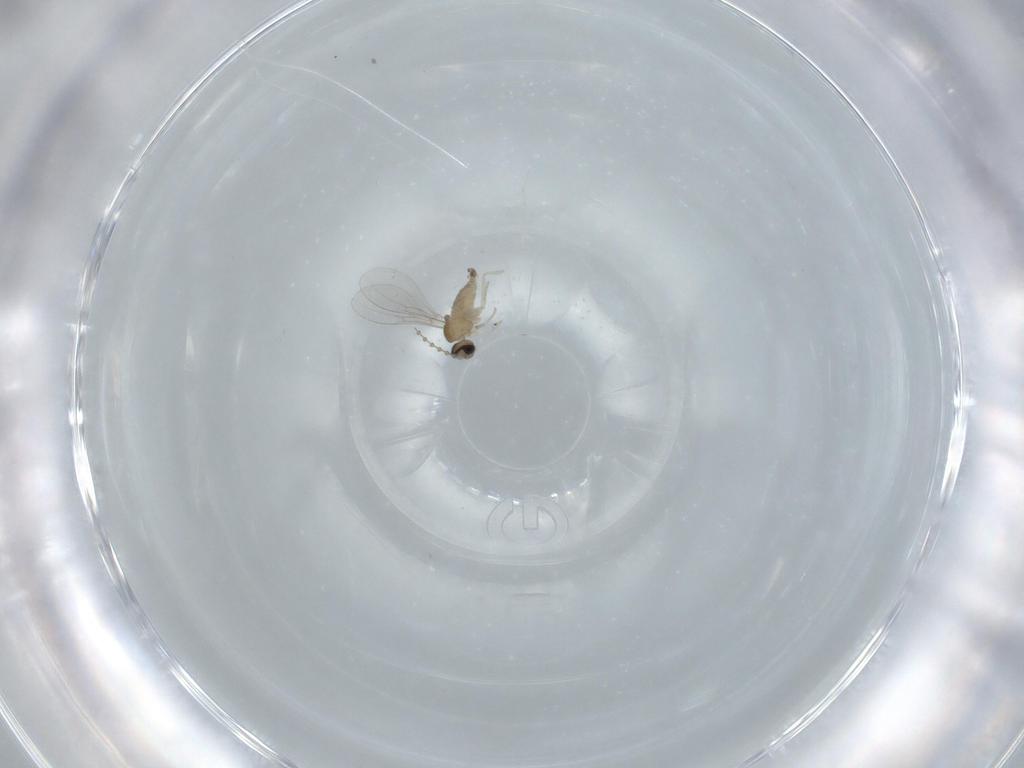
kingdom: Animalia
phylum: Arthropoda
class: Insecta
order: Diptera
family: Cecidomyiidae
